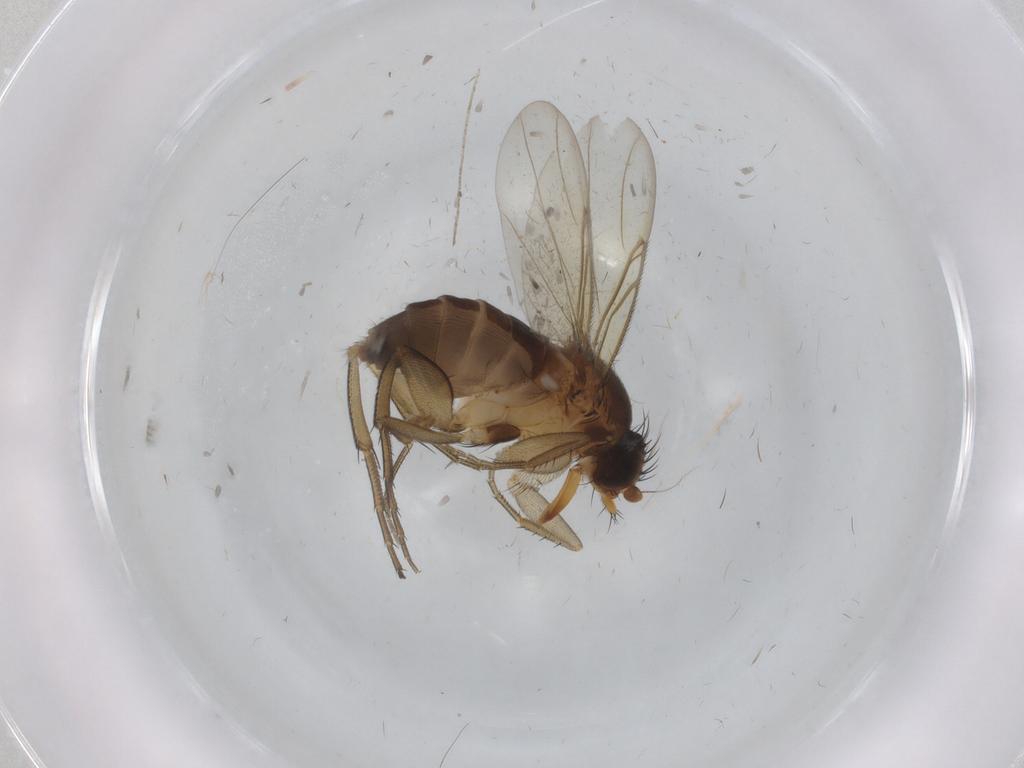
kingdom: Animalia
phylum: Arthropoda
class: Insecta
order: Diptera
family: Phoridae
